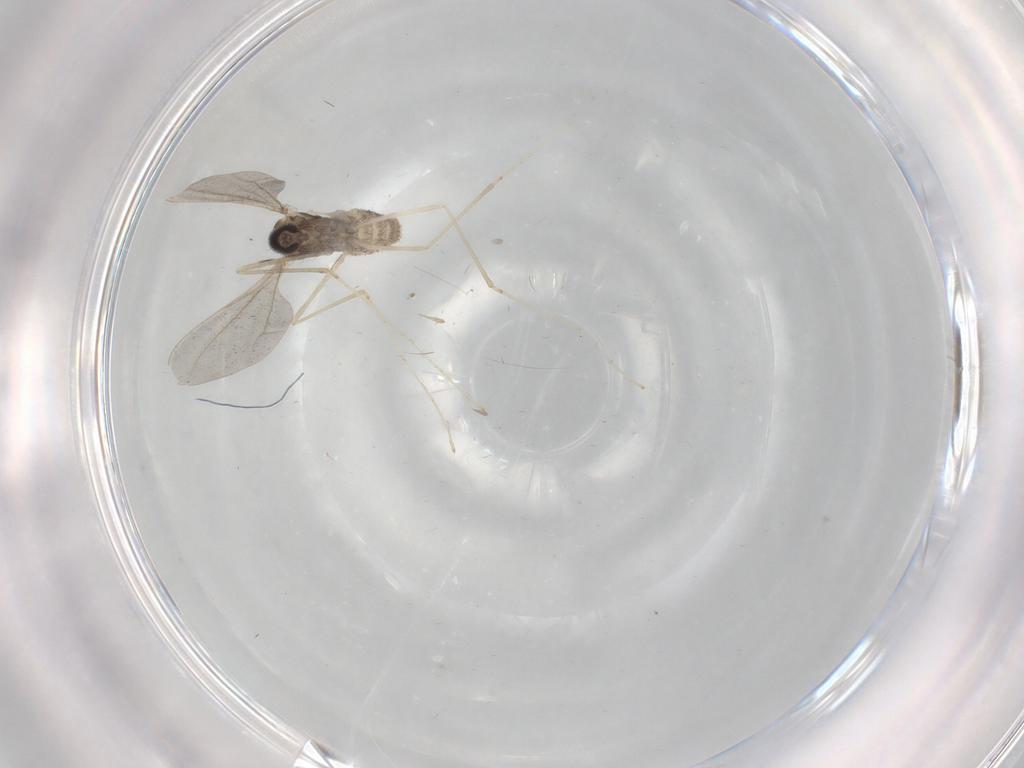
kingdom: Animalia
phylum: Arthropoda
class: Insecta
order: Diptera
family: Cecidomyiidae
